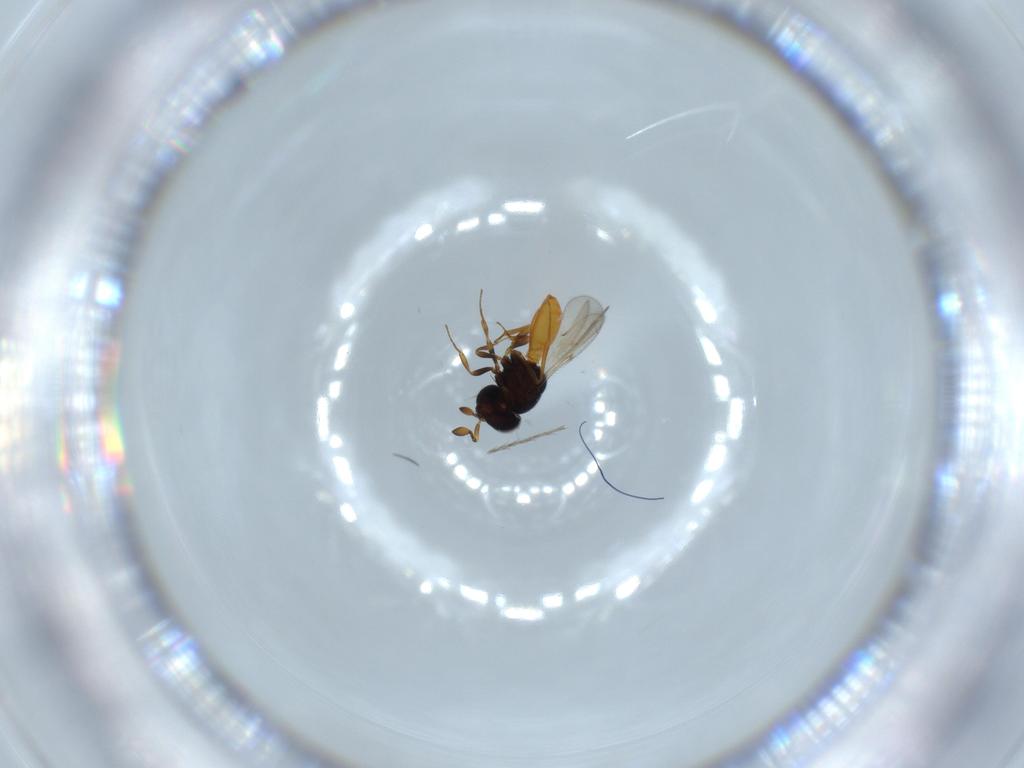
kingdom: Animalia
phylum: Arthropoda
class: Insecta
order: Hymenoptera
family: Scelionidae
